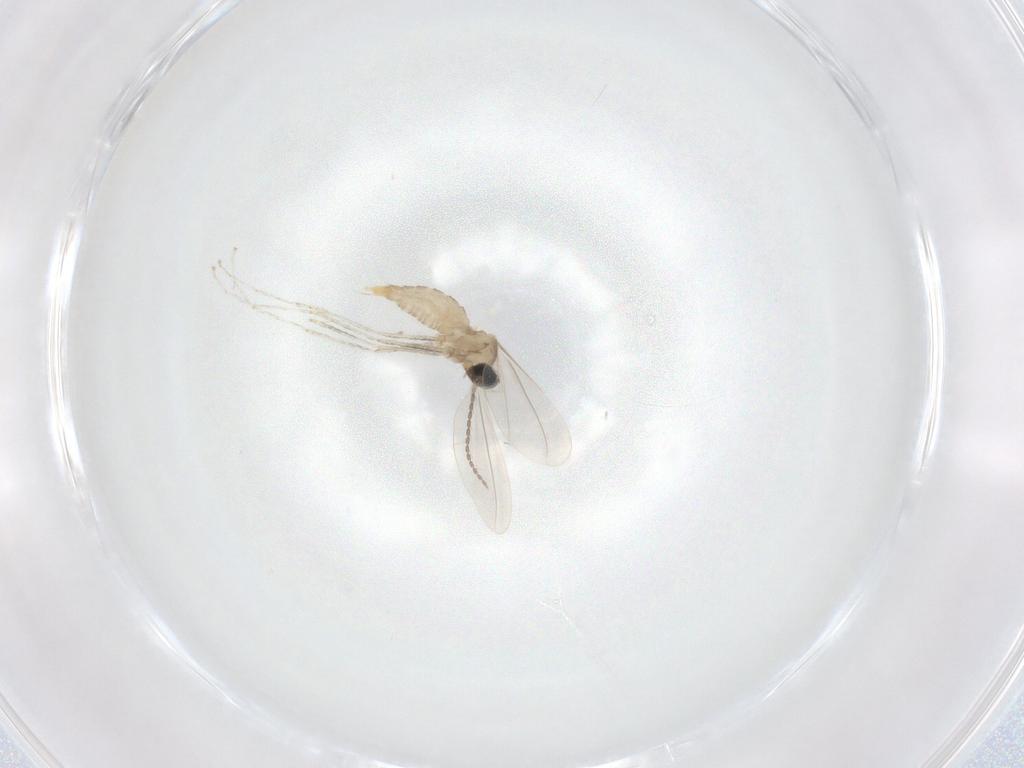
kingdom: Animalia
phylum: Arthropoda
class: Insecta
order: Diptera
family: Cecidomyiidae
